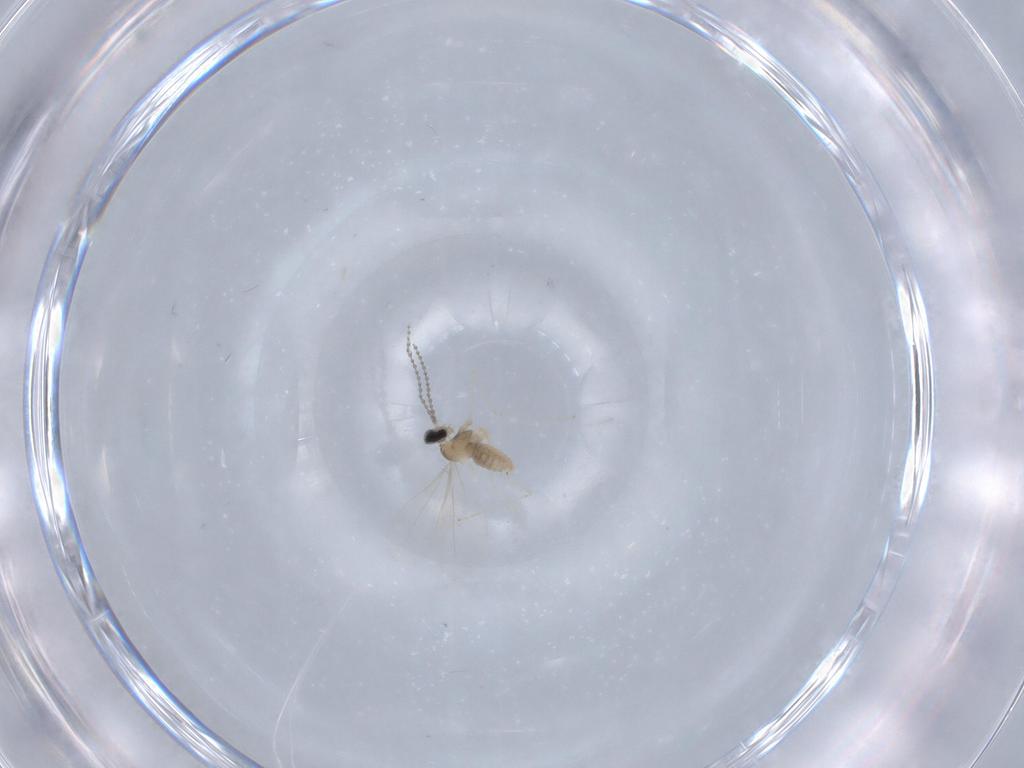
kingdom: Animalia
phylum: Arthropoda
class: Insecta
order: Diptera
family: Cecidomyiidae
